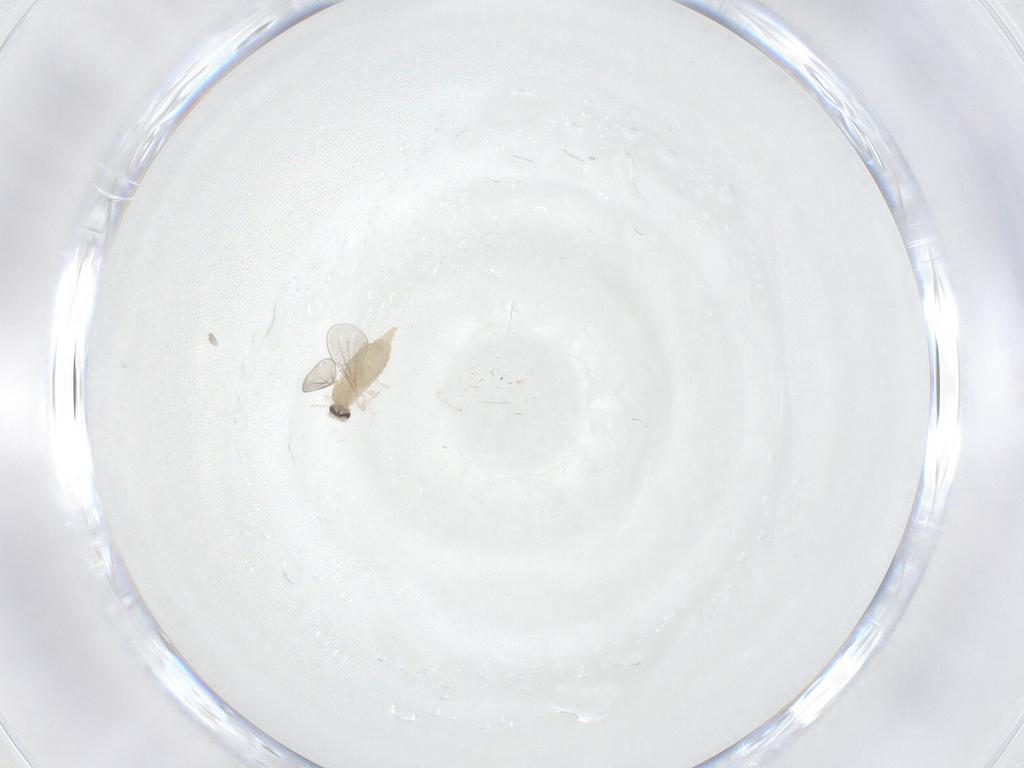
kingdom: Animalia
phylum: Arthropoda
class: Insecta
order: Diptera
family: Cecidomyiidae
